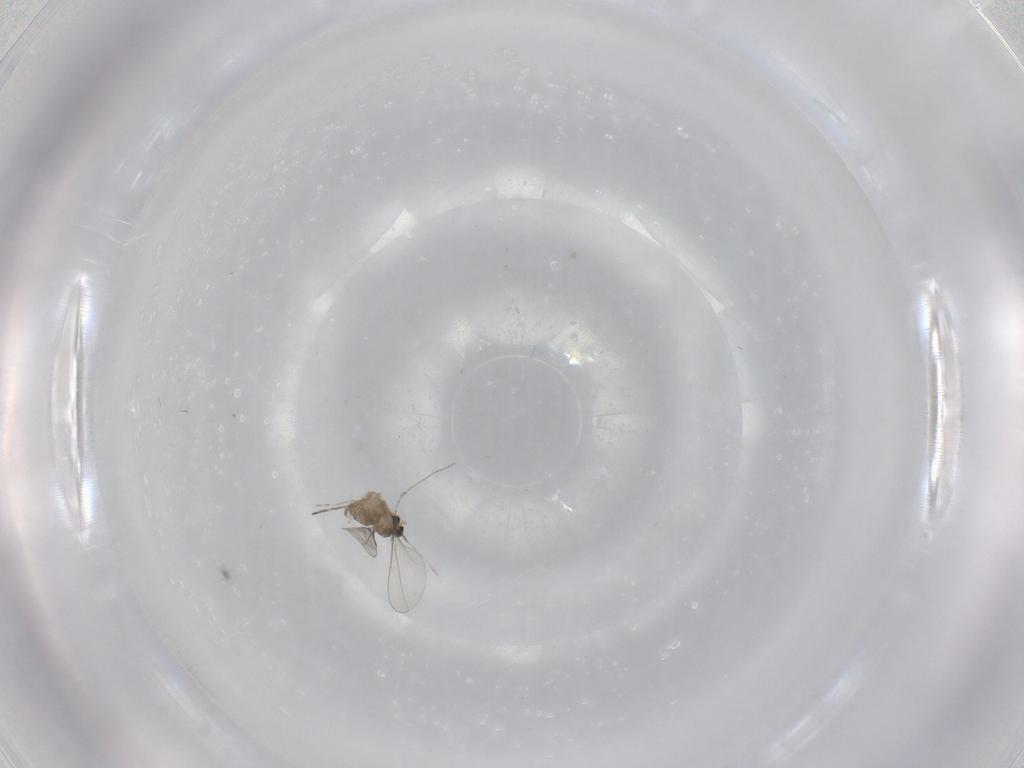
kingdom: Animalia
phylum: Arthropoda
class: Insecta
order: Diptera
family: Cecidomyiidae
